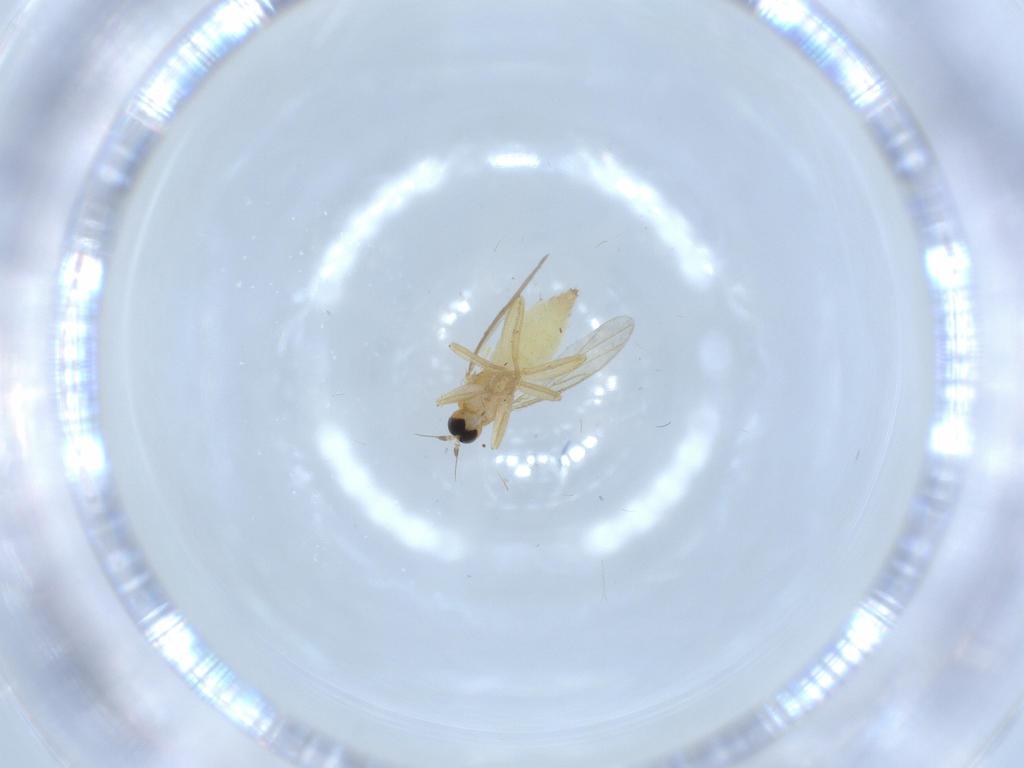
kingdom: Animalia
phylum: Arthropoda
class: Insecta
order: Diptera
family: Hybotidae
